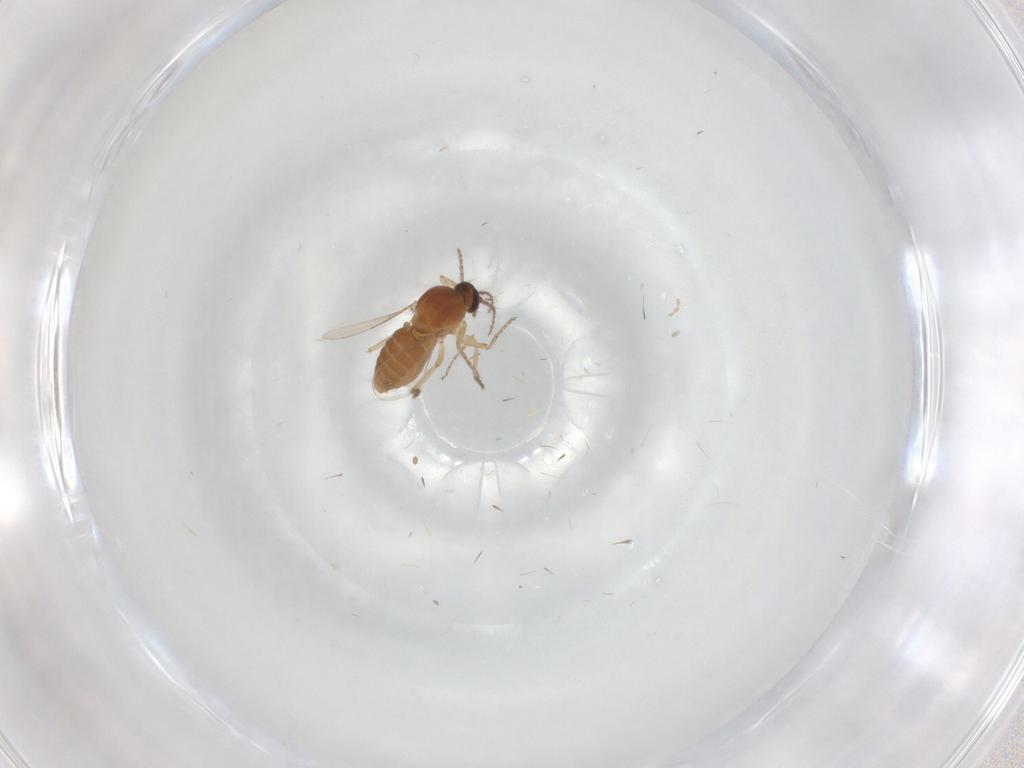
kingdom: Animalia
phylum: Arthropoda
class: Insecta
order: Diptera
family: Ceratopogonidae
